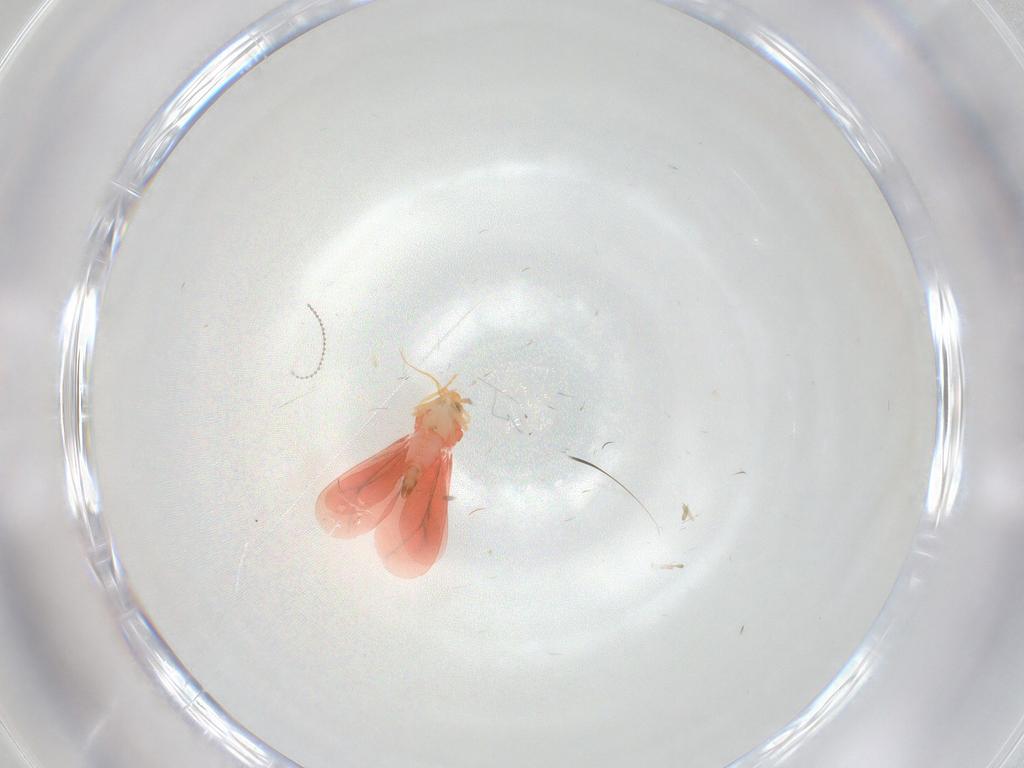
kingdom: Animalia
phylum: Arthropoda
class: Insecta
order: Hemiptera
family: Aleyrodidae
